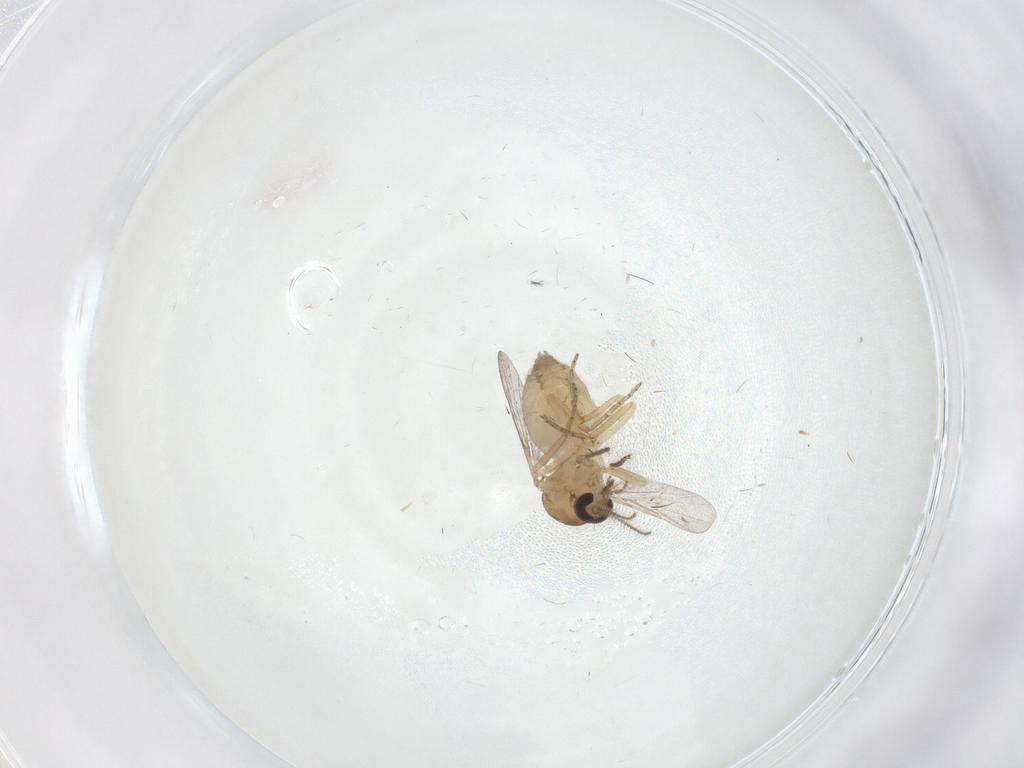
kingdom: Animalia
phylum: Arthropoda
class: Insecta
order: Diptera
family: Ceratopogonidae
